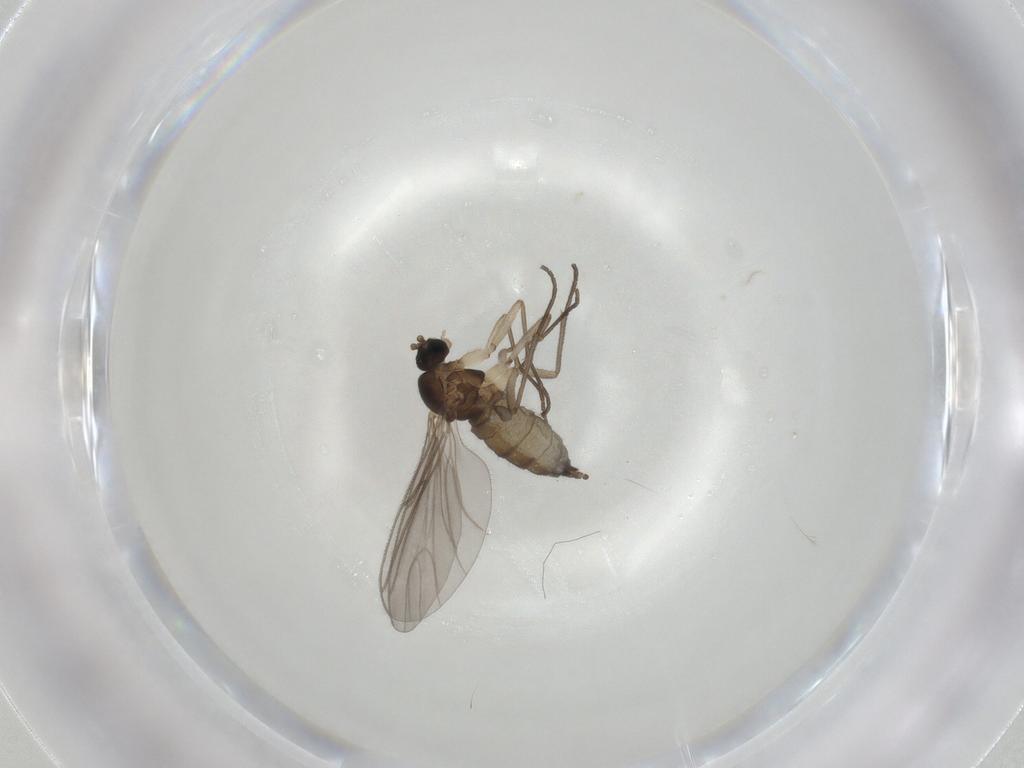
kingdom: Animalia
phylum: Arthropoda
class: Insecta
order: Diptera
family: Sciaridae
